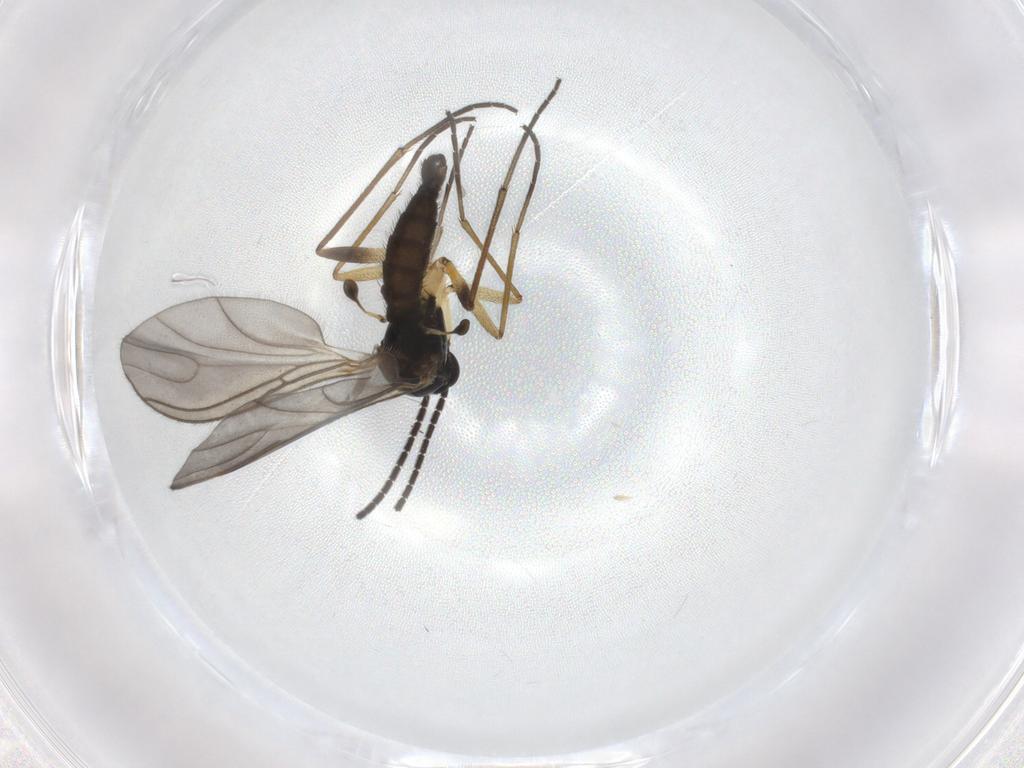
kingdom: Animalia
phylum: Arthropoda
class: Insecta
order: Diptera
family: Sciaridae
